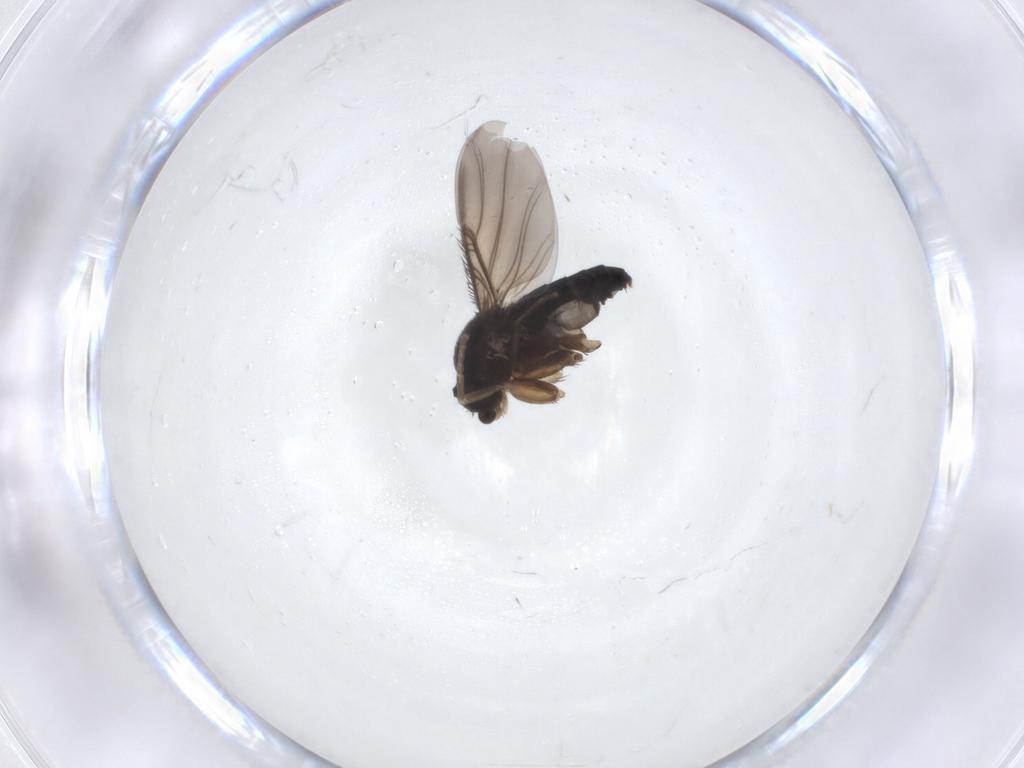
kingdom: Animalia
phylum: Arthropoda
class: Insecta
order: Diptera
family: Phoridae
